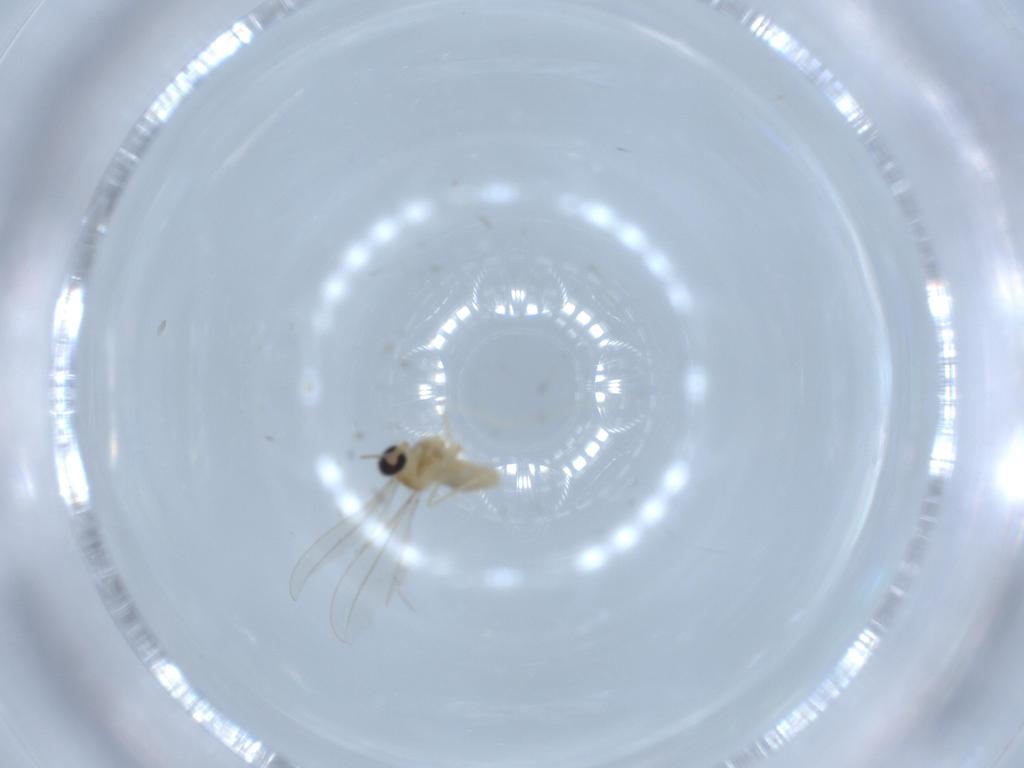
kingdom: Animalia
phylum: Arthropoda
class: Insecta
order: Diptera
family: Cecidomyiidae
